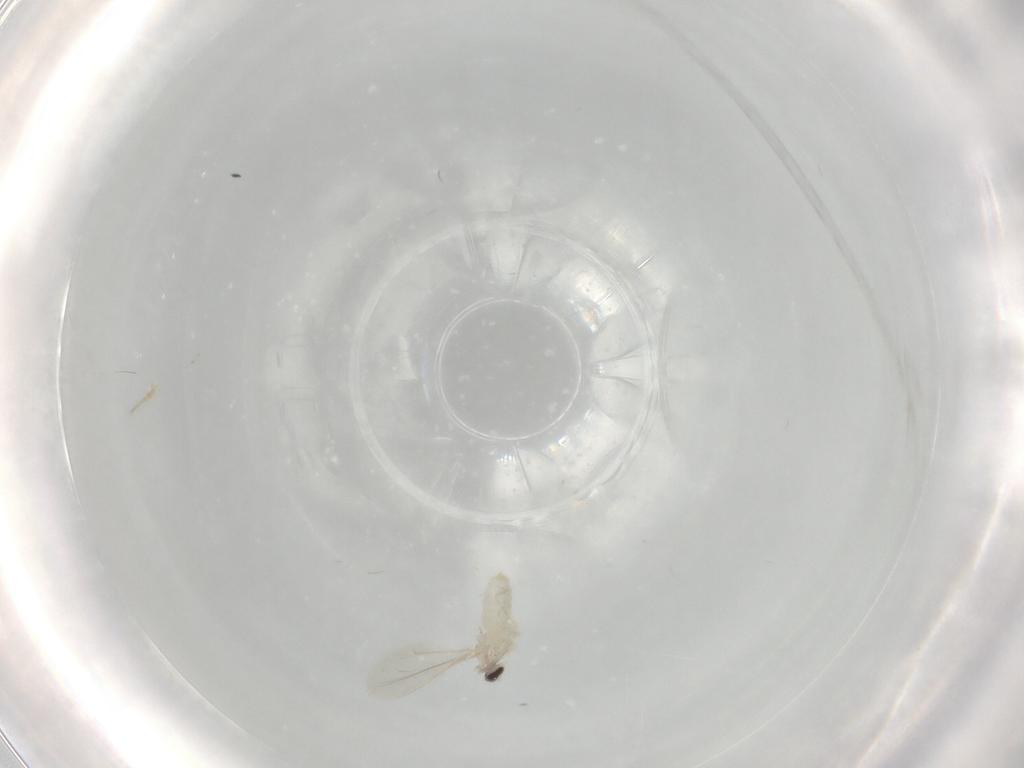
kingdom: Animalia
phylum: Arthropoda
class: Insecta
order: Diptera
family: Cecidomyiidae
